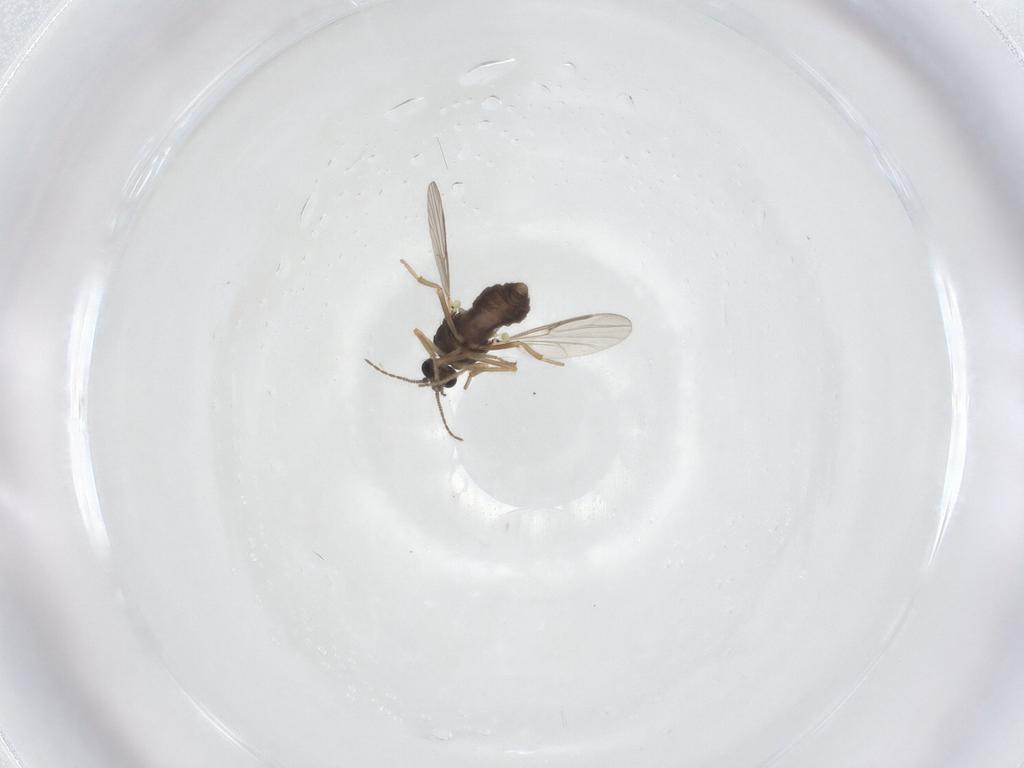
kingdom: Animalia
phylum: Arthropoda
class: Insecta
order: Diptera
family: Ceratopogonidae
